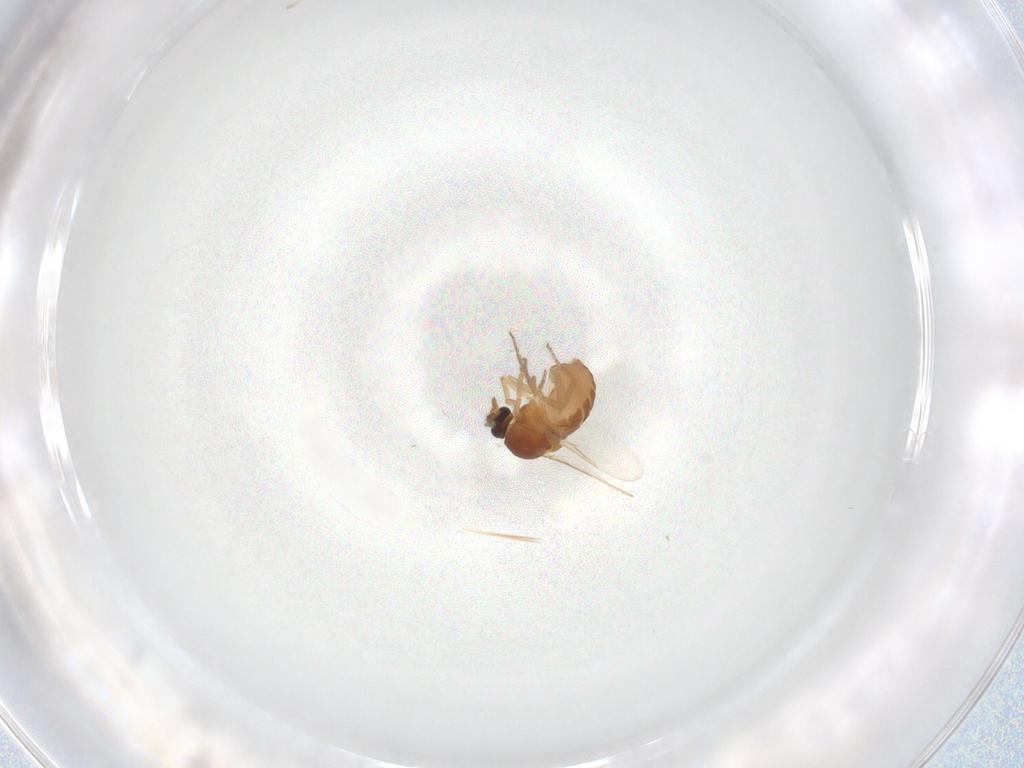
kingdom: Animalia
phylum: Arthropoda
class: Insecta
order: Diptera
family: Ceratopogonidae
